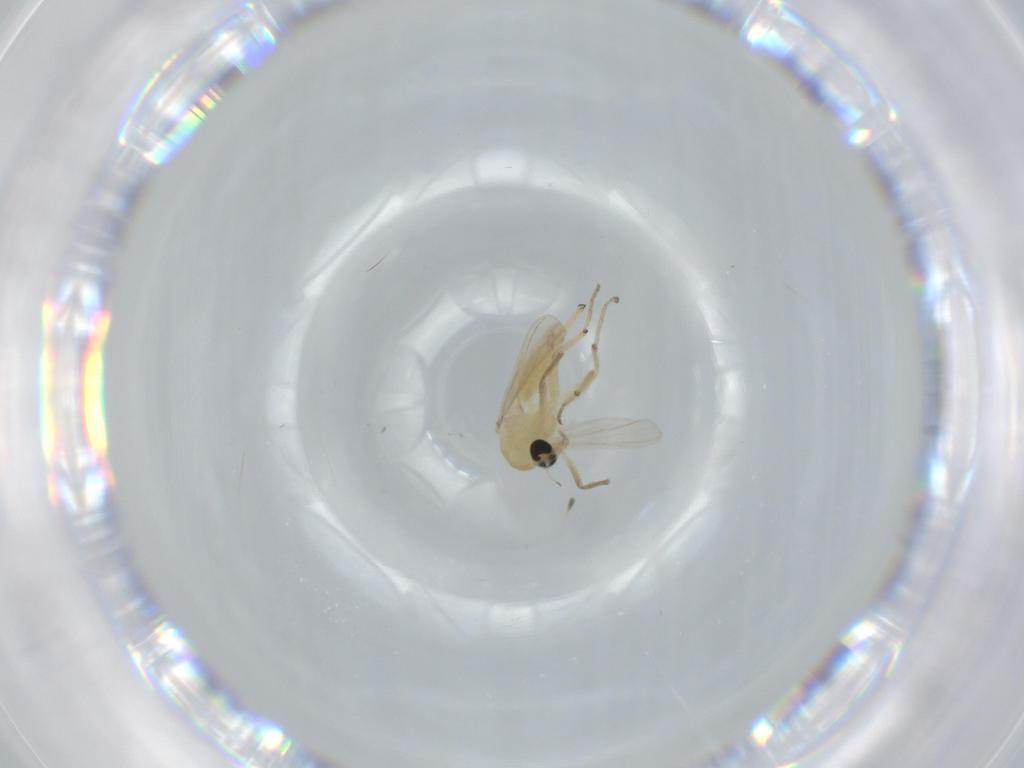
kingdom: Animalia
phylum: Arthropoda
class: Insecta
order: Diptera
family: Chironomidae
